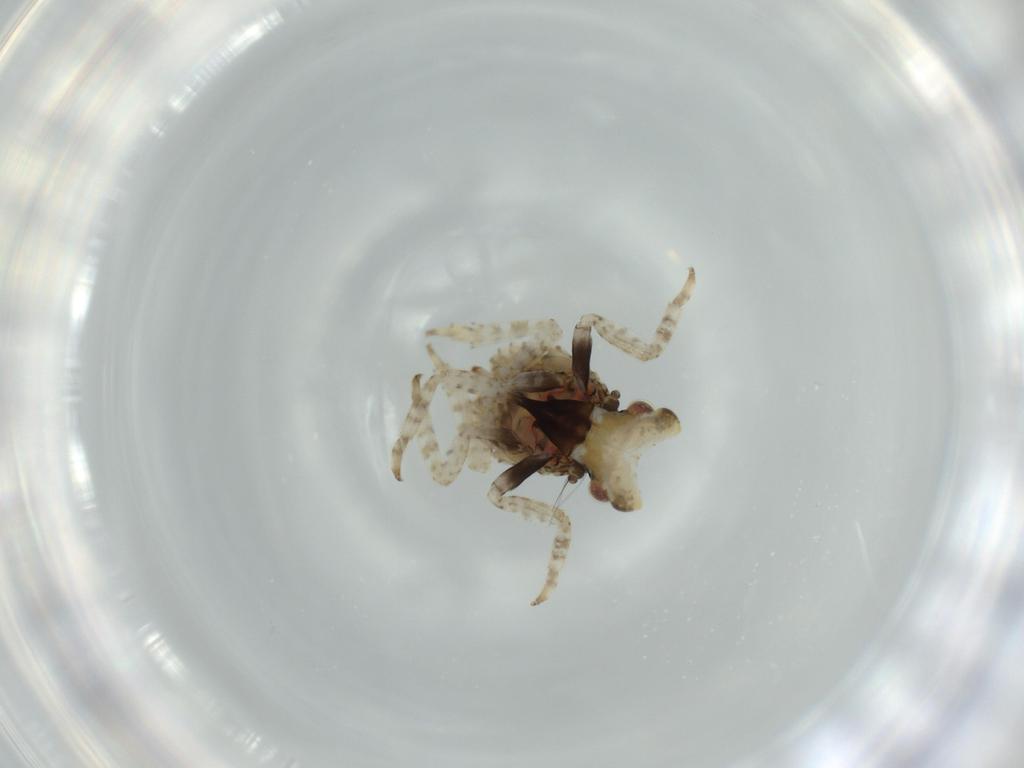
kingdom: Animalia
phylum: Arthropoda
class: Insecta
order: Hemiptera
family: Fulgoridae
